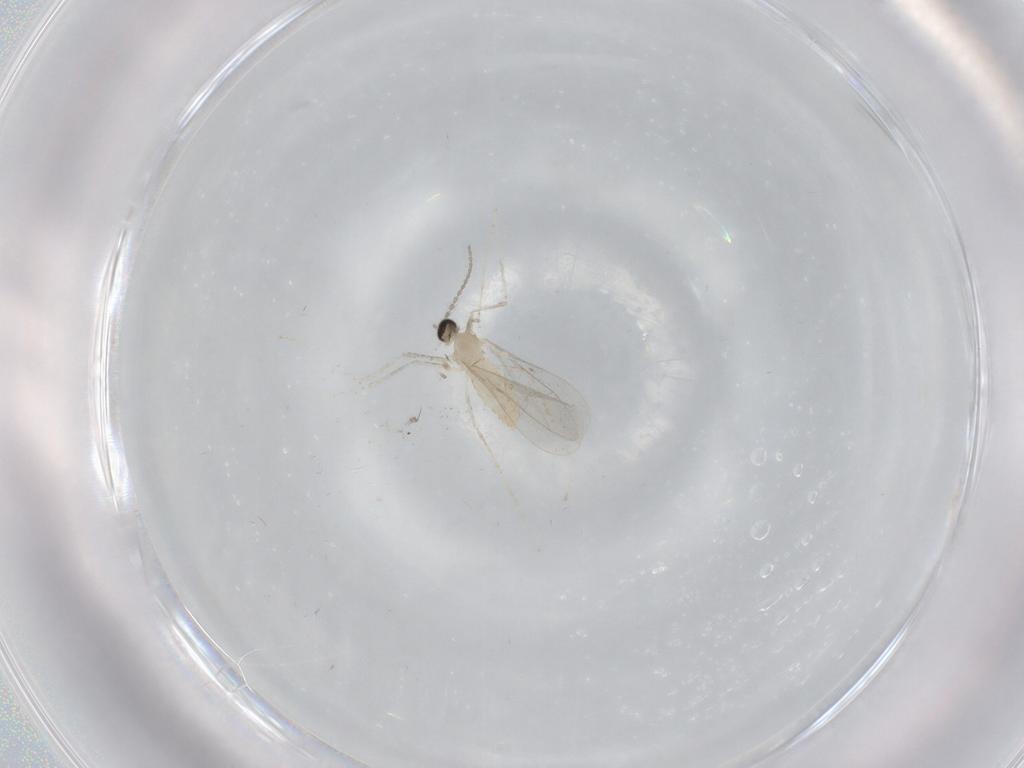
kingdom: Animalia
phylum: Arthropoda
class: Insecta
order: Diptera
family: Cecidomyiidae
